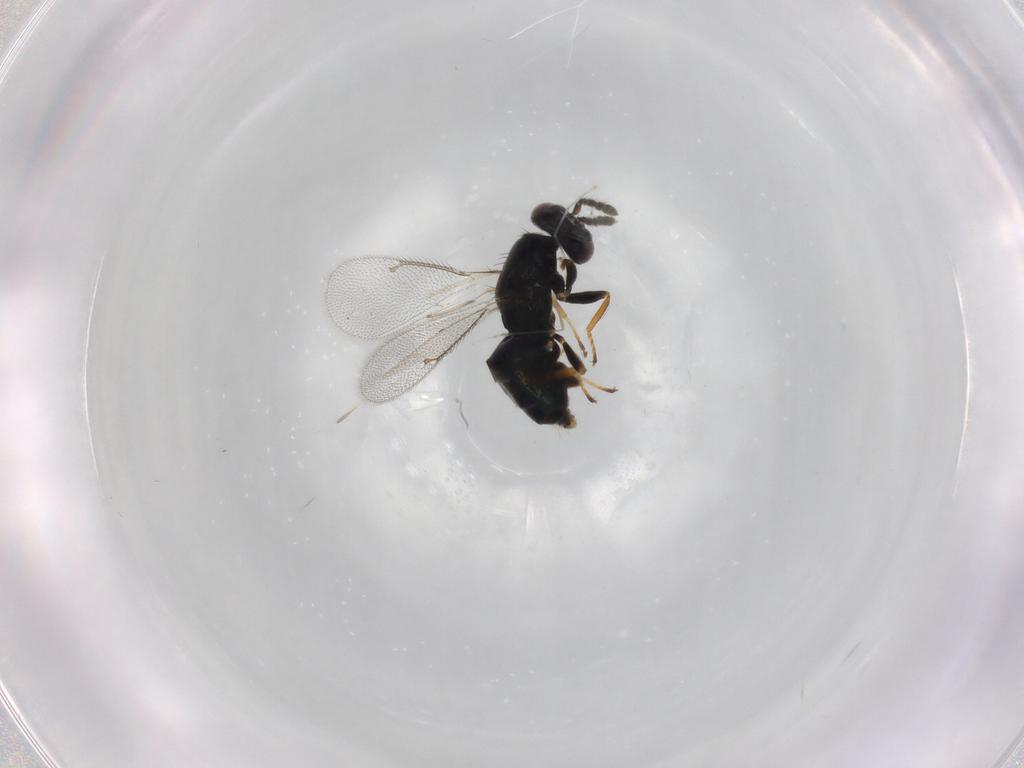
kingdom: Animalia
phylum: Arthropoda
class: Insecta
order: Hymenoptera
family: Eulophidae
